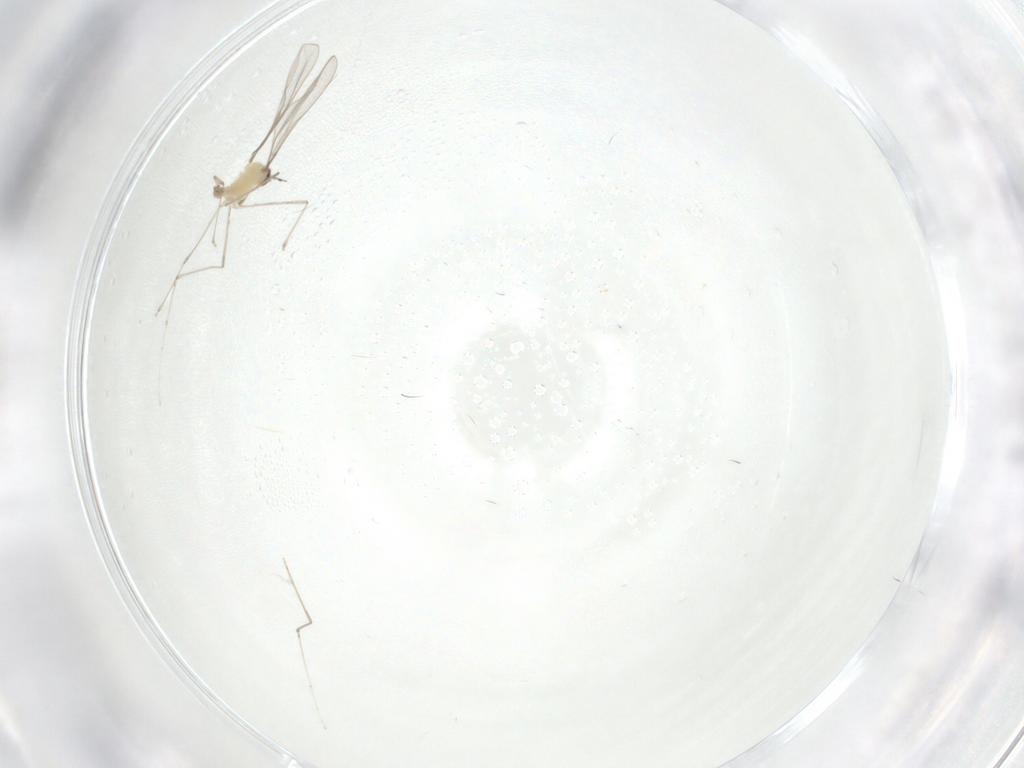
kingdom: Animalia
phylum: Arthropoda
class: Insecta
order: Diptera
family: Cecidomyiidae
